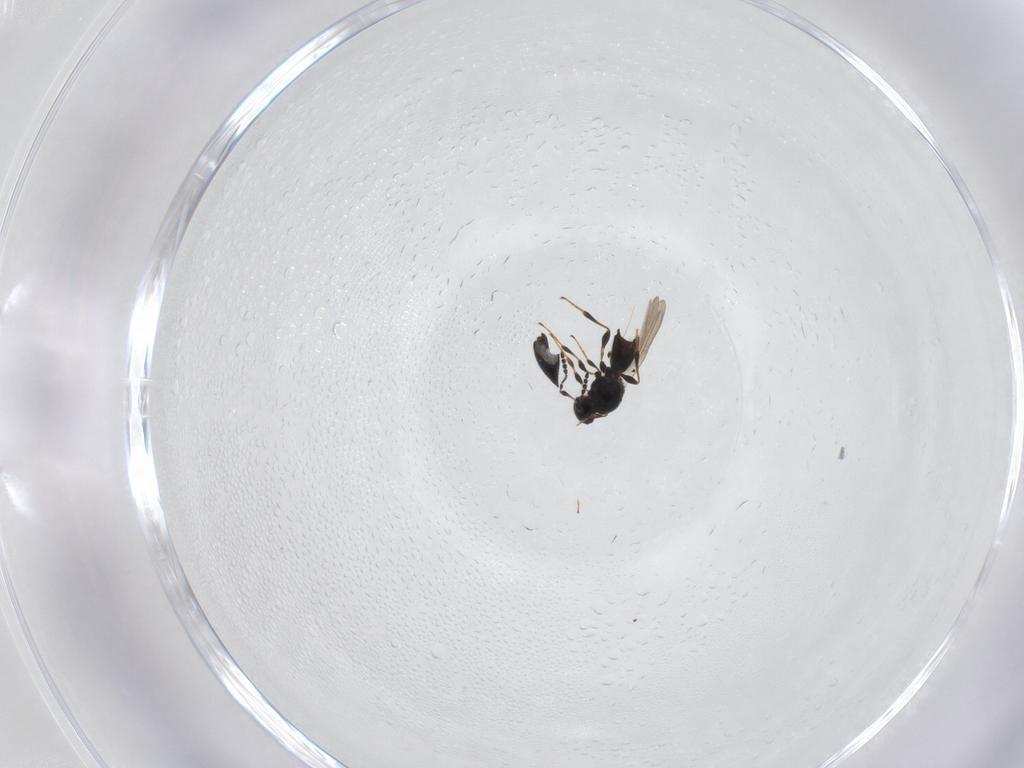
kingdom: Animalia
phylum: Arthropoda
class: Insecta
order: Hymenoptera
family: Platygastridae
